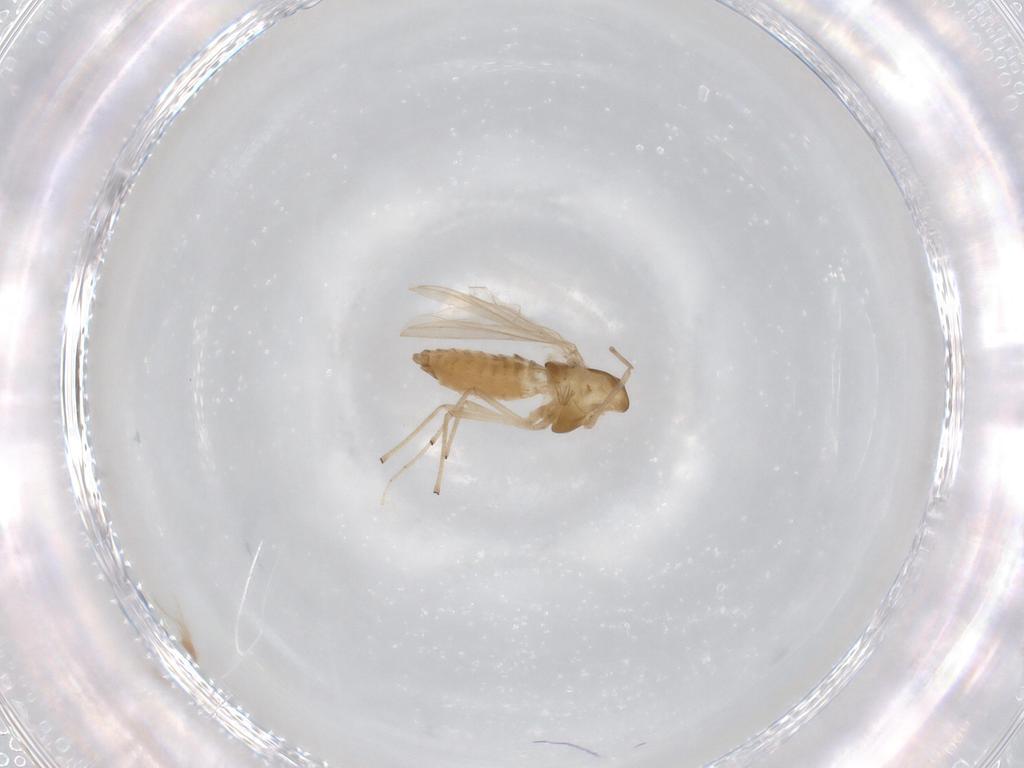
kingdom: Animalia
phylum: Arthropoda
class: Insecta
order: Diptera
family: Chironomidae
